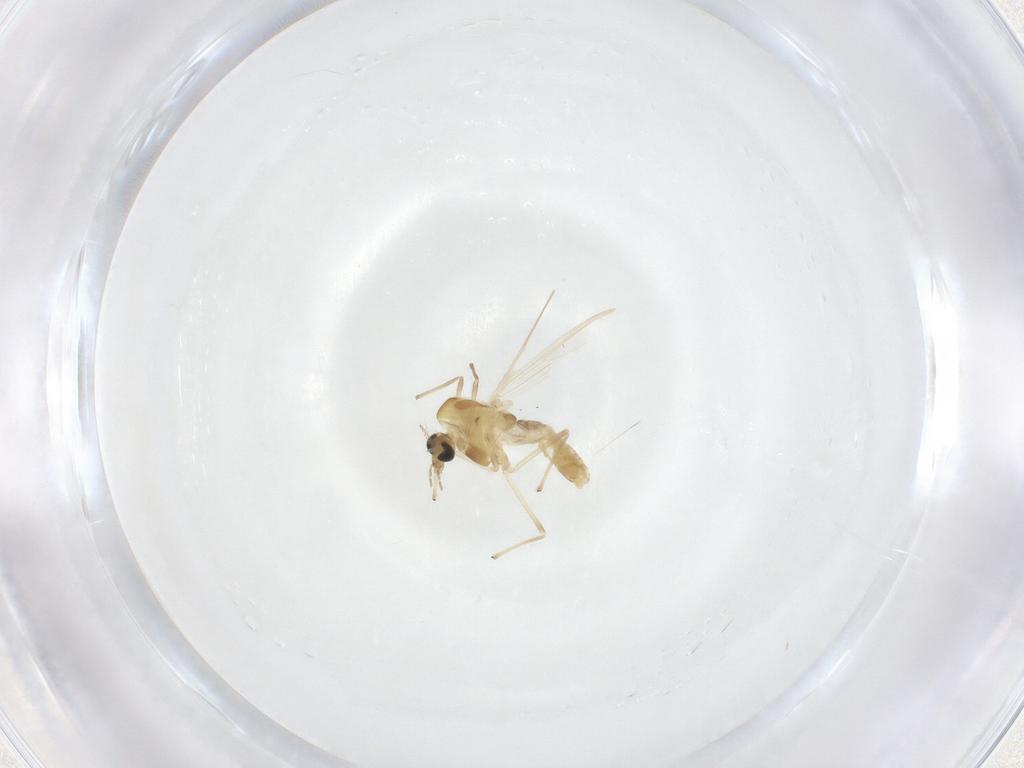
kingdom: Animalia
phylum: Arthropoda
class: Insecta
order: Diptera
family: Chironomidae
